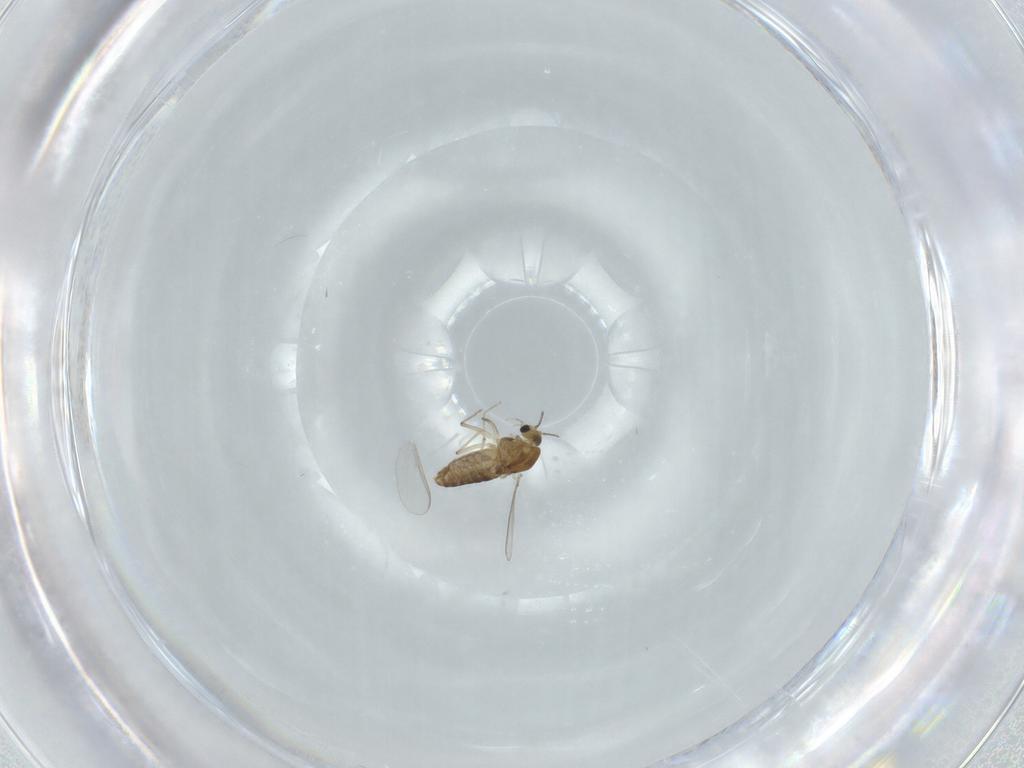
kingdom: Animalia
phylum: Arthropoda
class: Insecta
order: Diptera
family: Chironomidae
